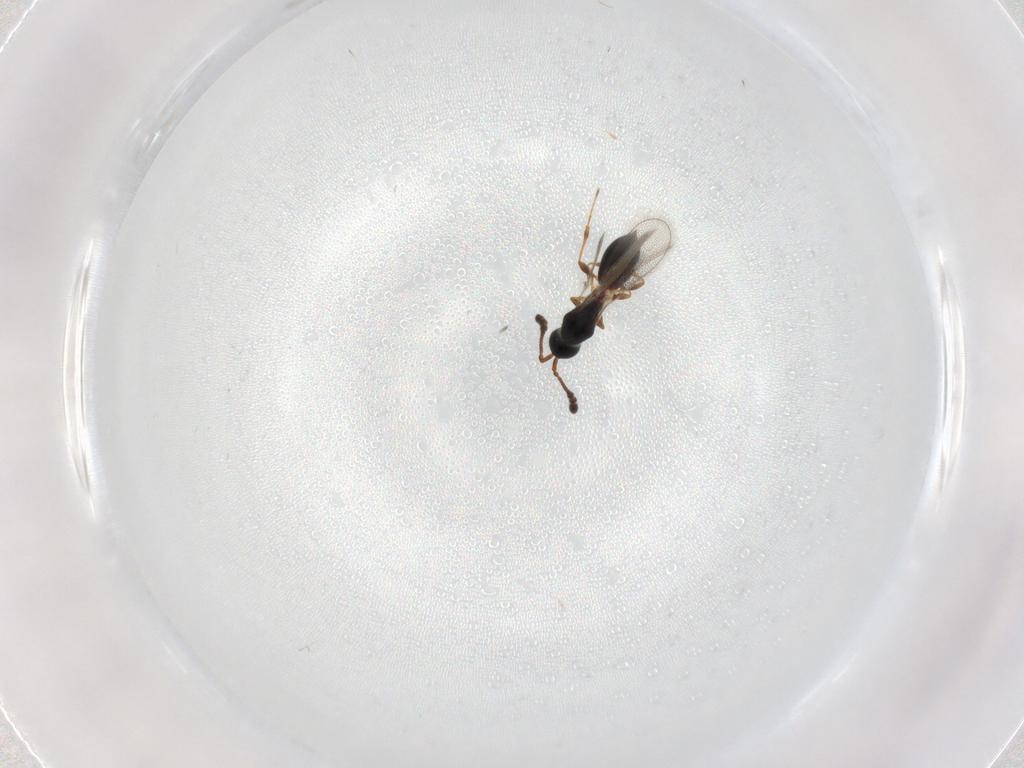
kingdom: Animalia
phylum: Arthropoda
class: Insecta
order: Hymenoptera
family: Diapriidae
